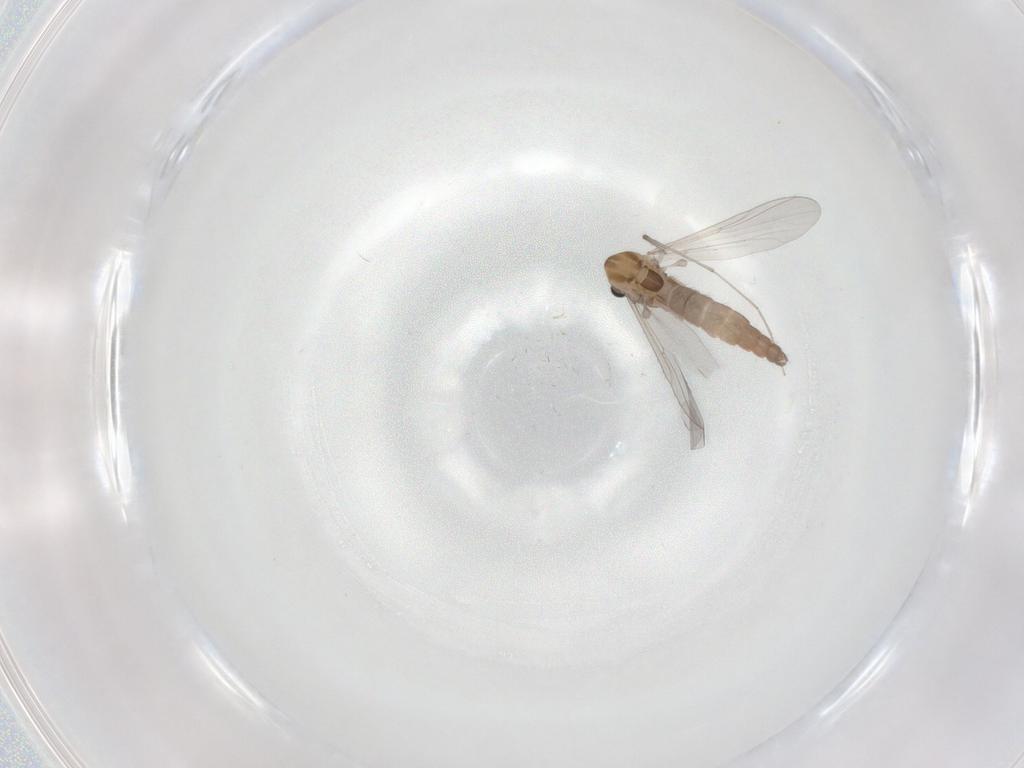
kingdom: Animalia
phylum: Arthropoda
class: Insecta
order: Diptera
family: Chironomidae
